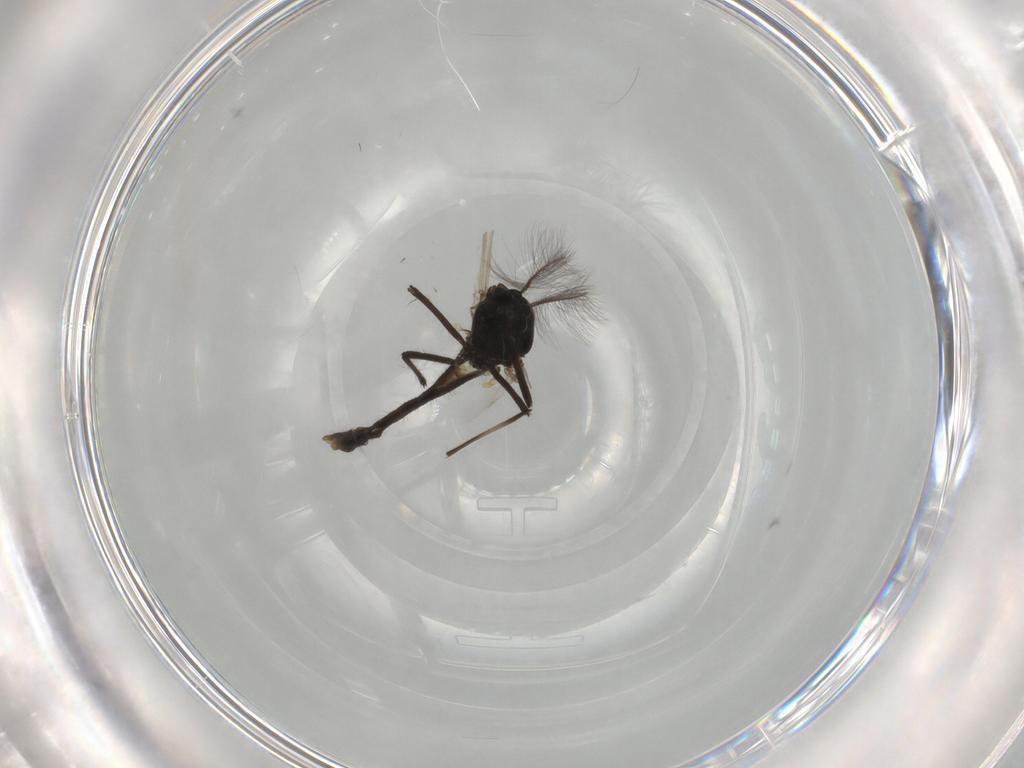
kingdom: Animalia
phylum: Arthropoda
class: Insecta
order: Diptera
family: Chironomidae
